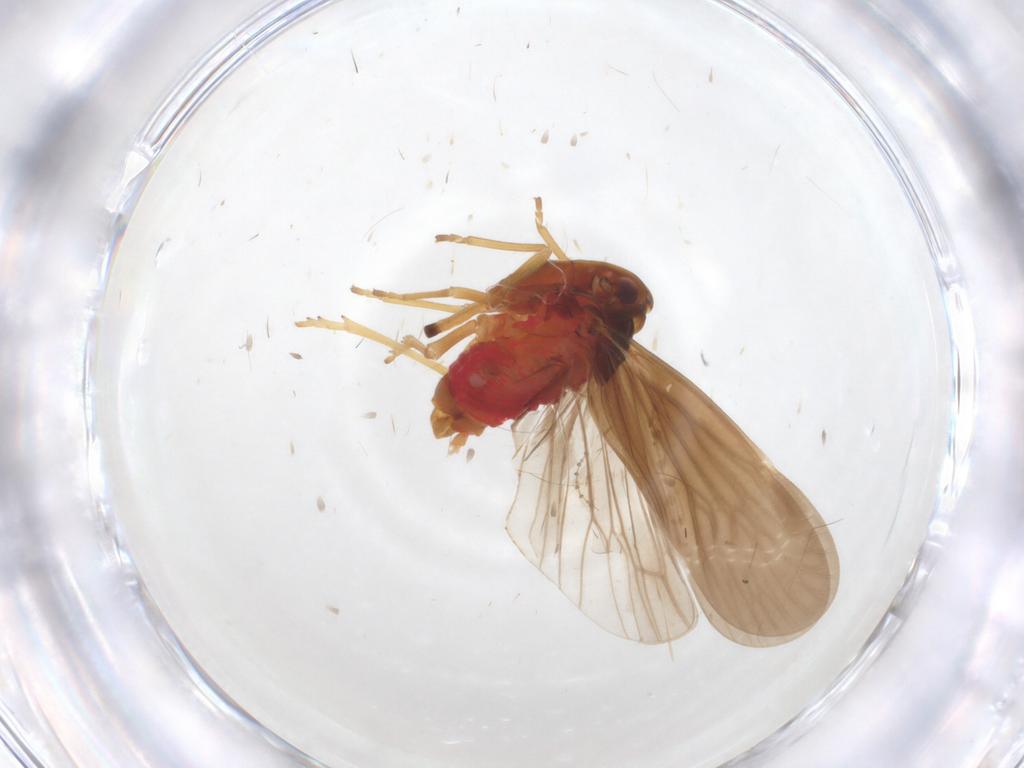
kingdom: Animalia
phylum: Arthropoda
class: Insecta
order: Hemiptera
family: Derbidae
